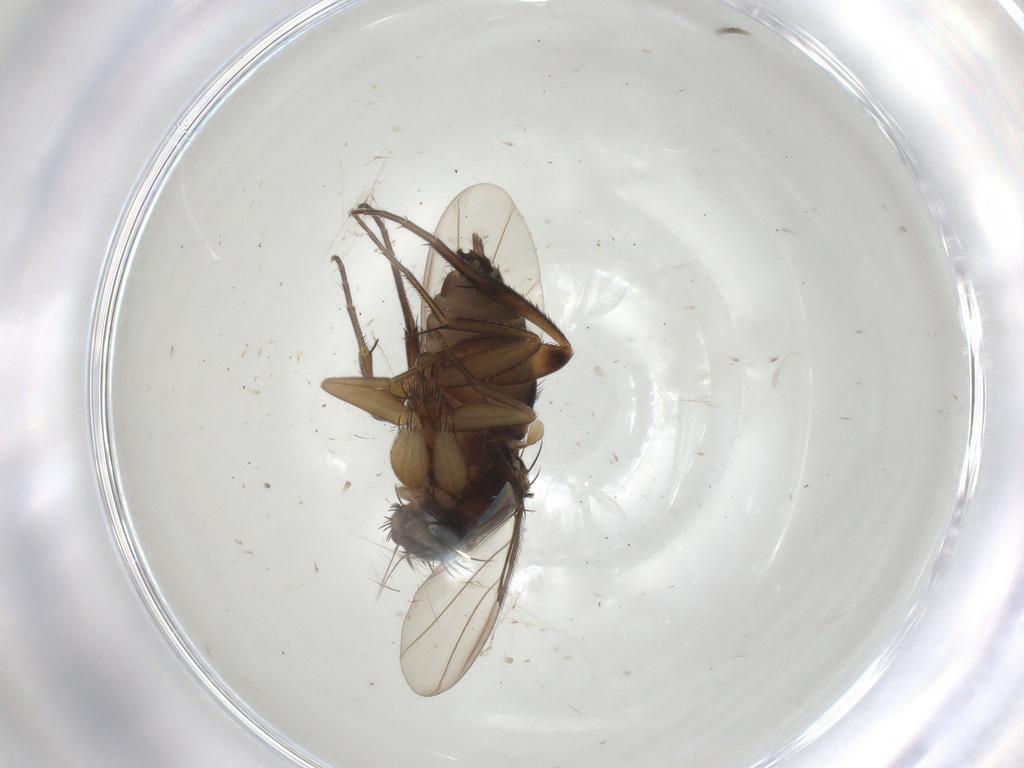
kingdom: Animalia
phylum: Arthropoda
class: Insecta
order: Diptera
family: Phoridae
